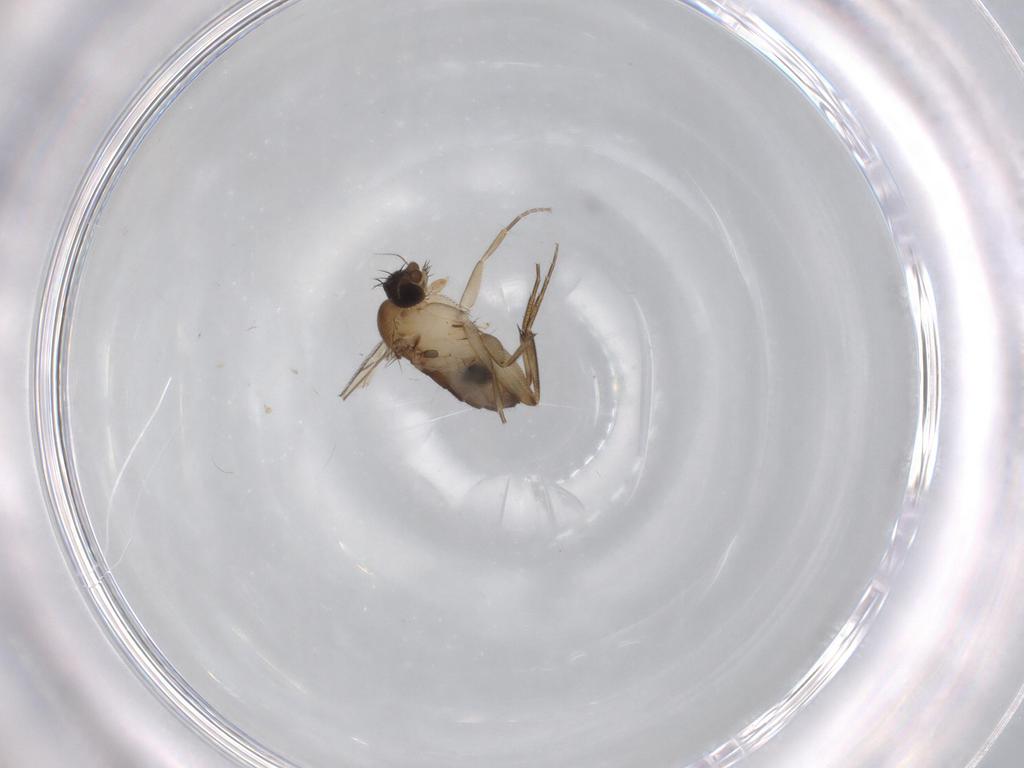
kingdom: Animalia
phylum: Arthropoda
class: Insecta
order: Diptera
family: Phoridae
